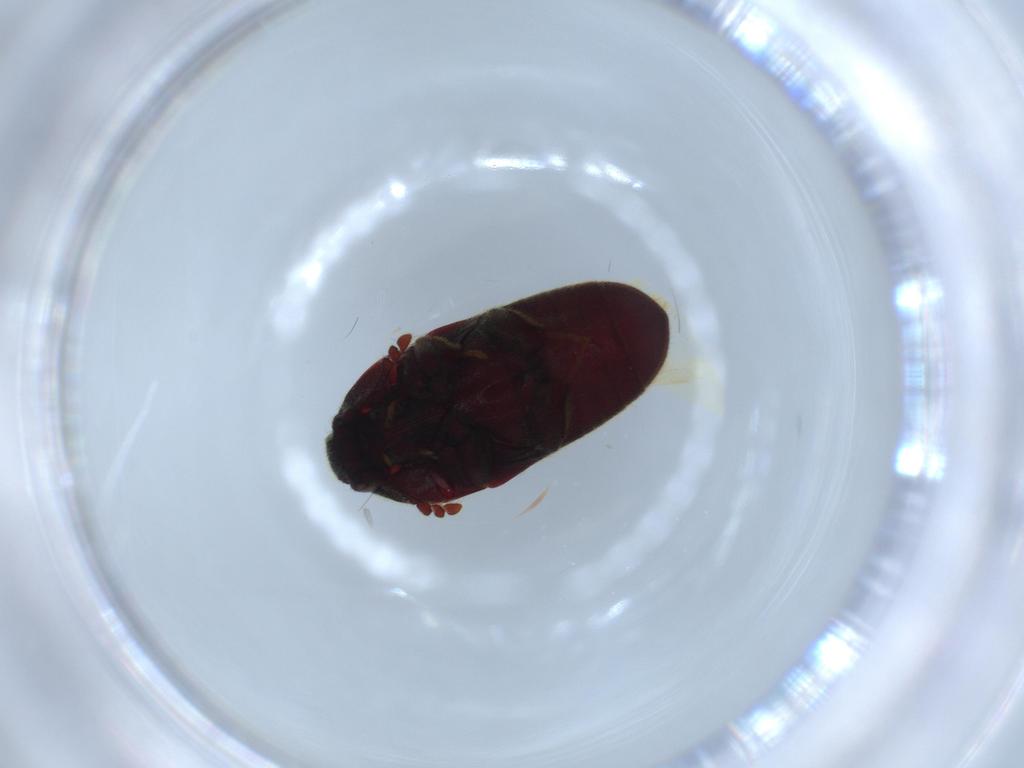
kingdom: Animalia
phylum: Arthropoda
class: Insecta
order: Coleoptera
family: Throscidae
